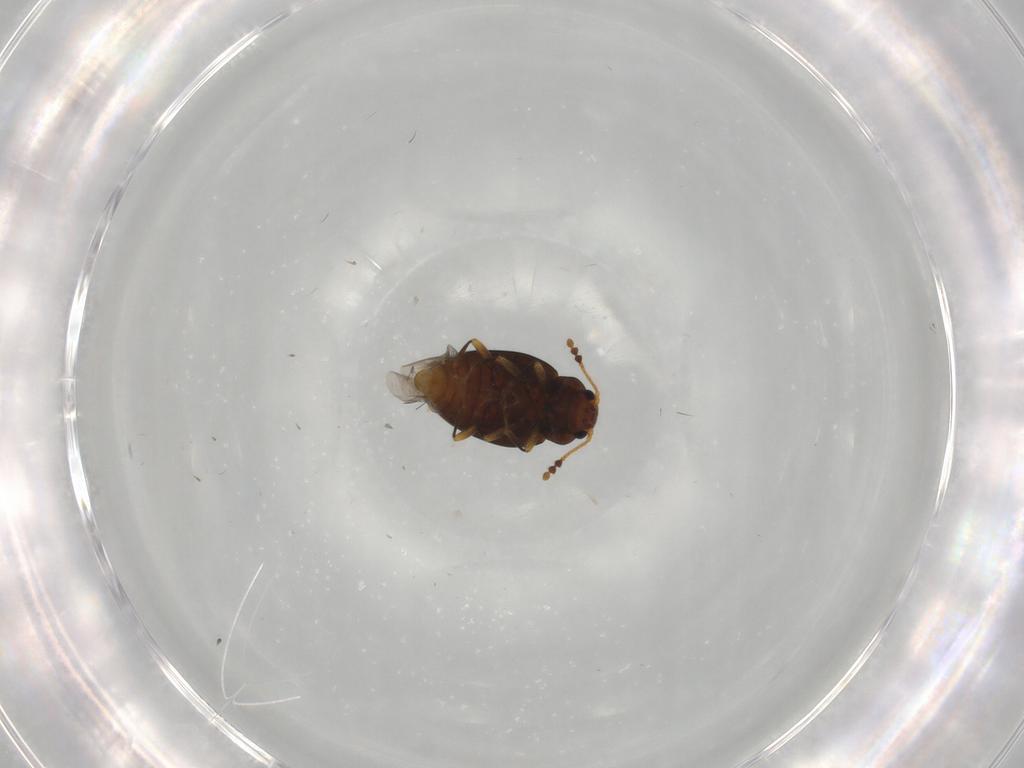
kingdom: Animalia
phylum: Arthropoda
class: Insecta
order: Coleoptera
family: Erotylidae
